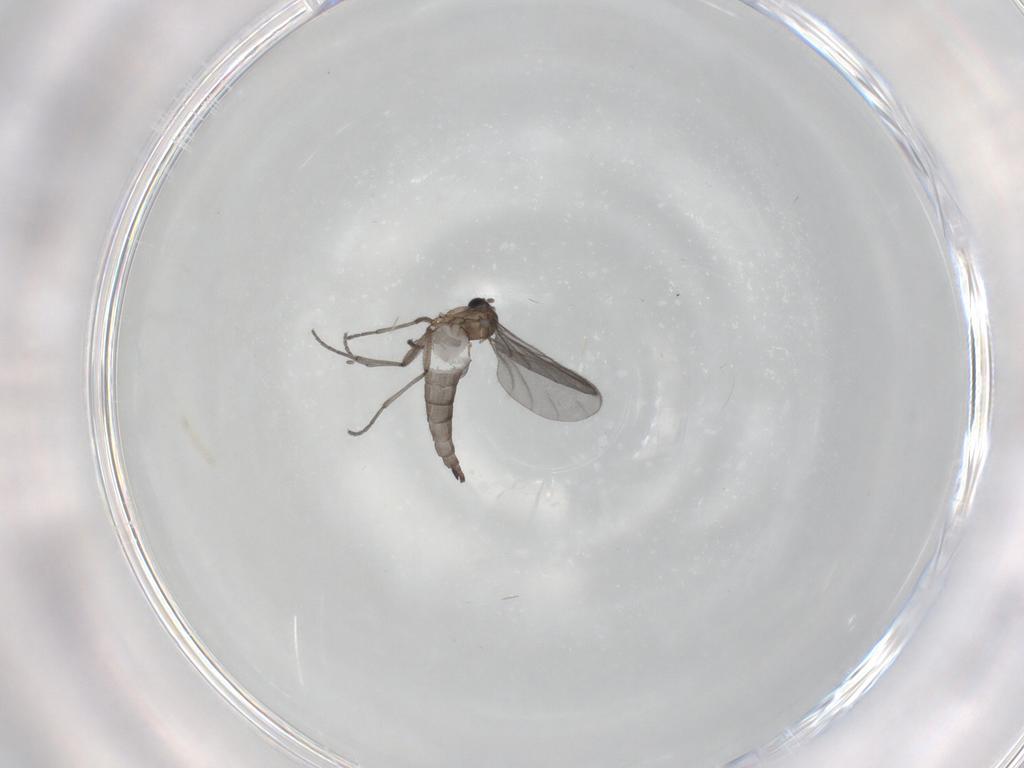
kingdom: Animalia
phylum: Arthropoda
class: Insecta
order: Diptera
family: Sciaridae
